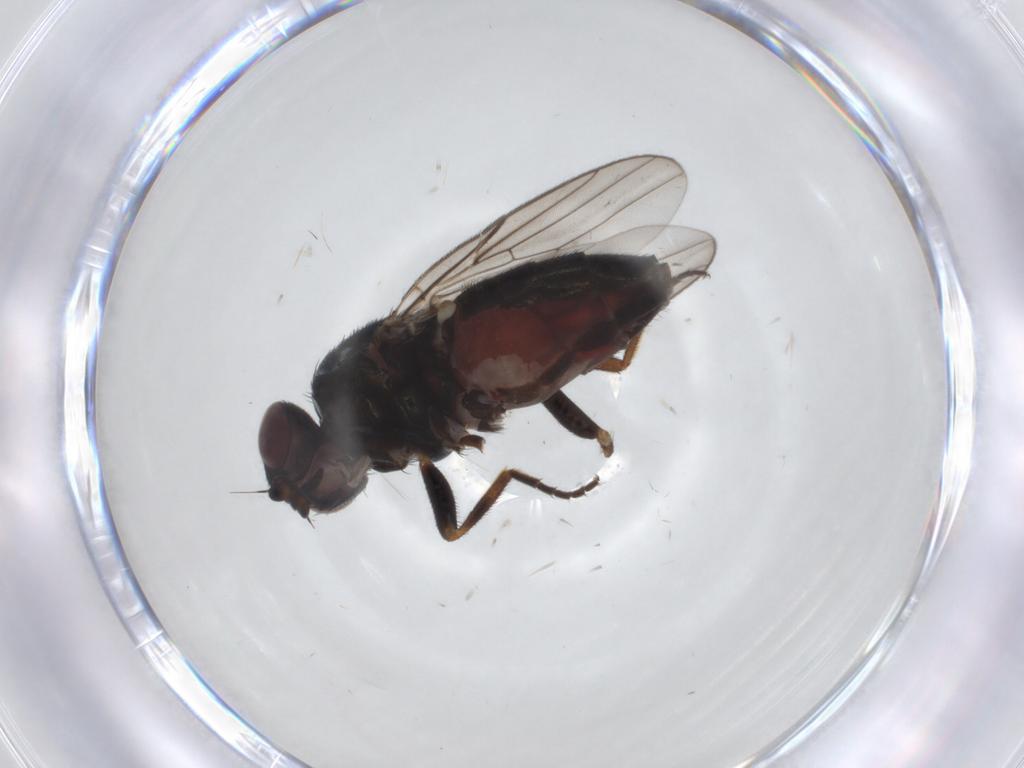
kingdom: Animalia
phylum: Arthropoda
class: Insecta
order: Diptera
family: Chloropidae
